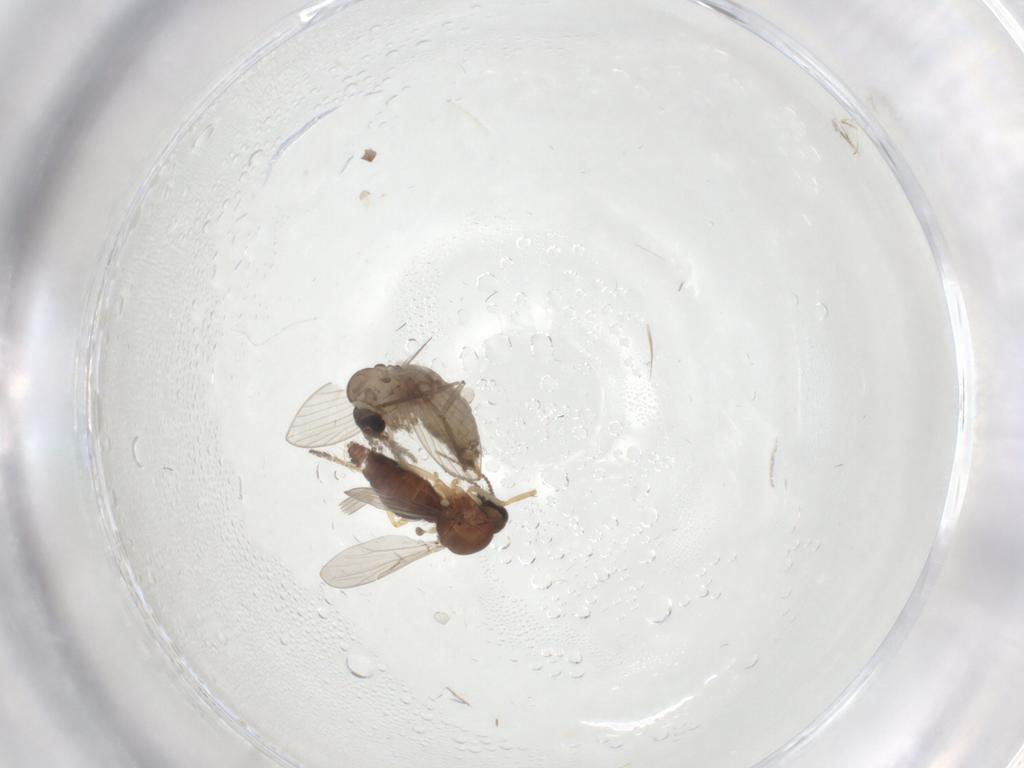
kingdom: Animalia
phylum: Arthropoda
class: Insecta
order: Diptera
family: Ceratopogonidae
